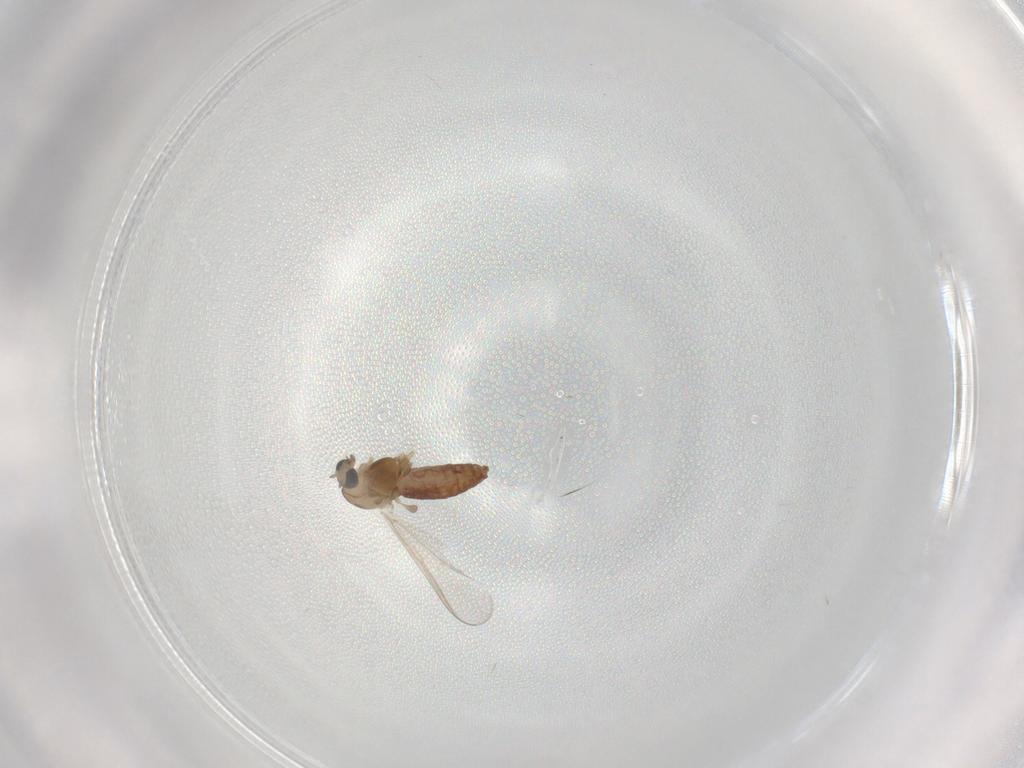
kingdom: Animalia
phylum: Arthropoda
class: Insecta
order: Diptera
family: Chironomidae
